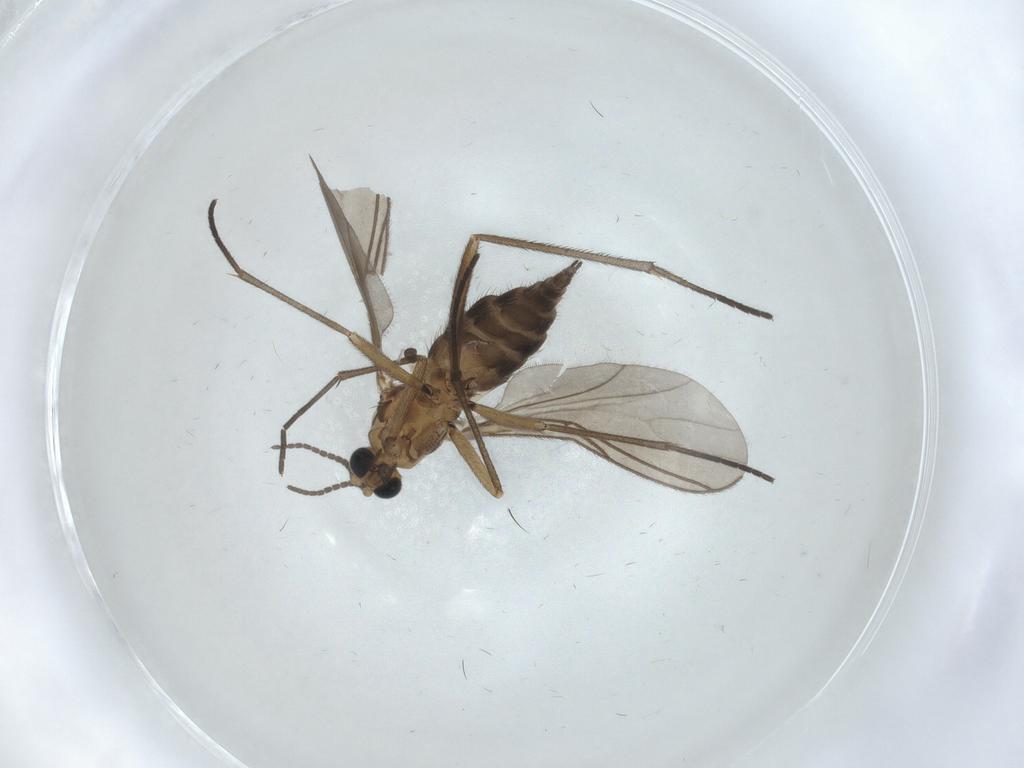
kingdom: Animalia
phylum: Arthropoda
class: Insecta
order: Diptera
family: Sciaridae
